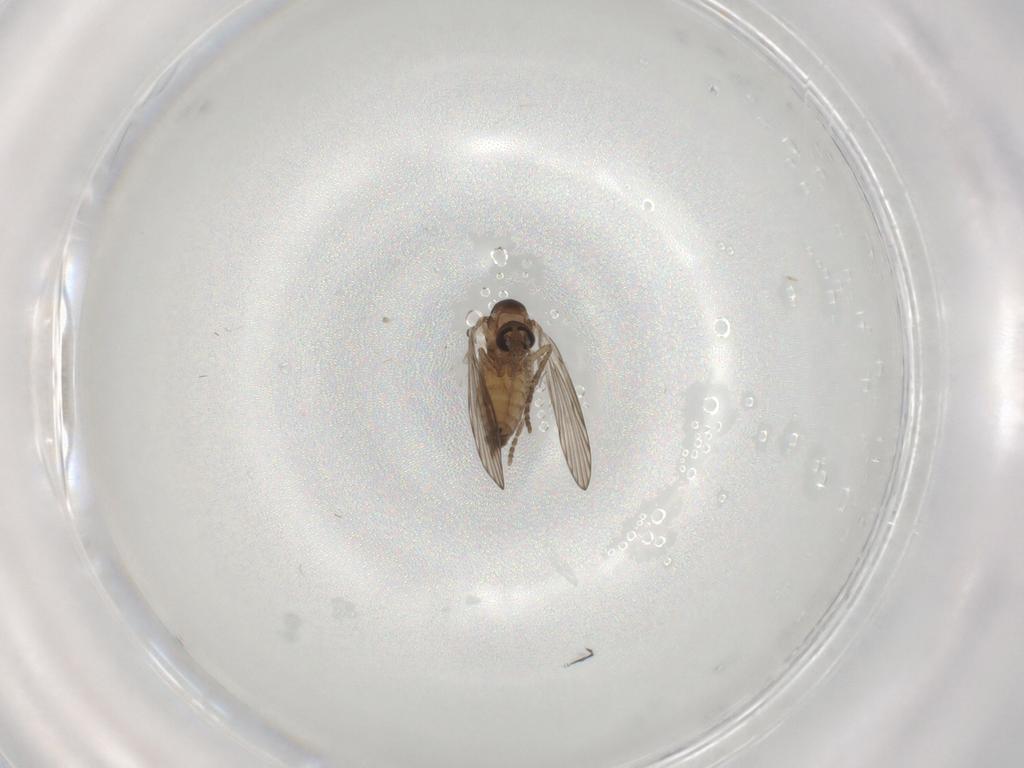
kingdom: Animalia
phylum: Arthropoda
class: Insecta
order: Diptera
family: Psychodidae
